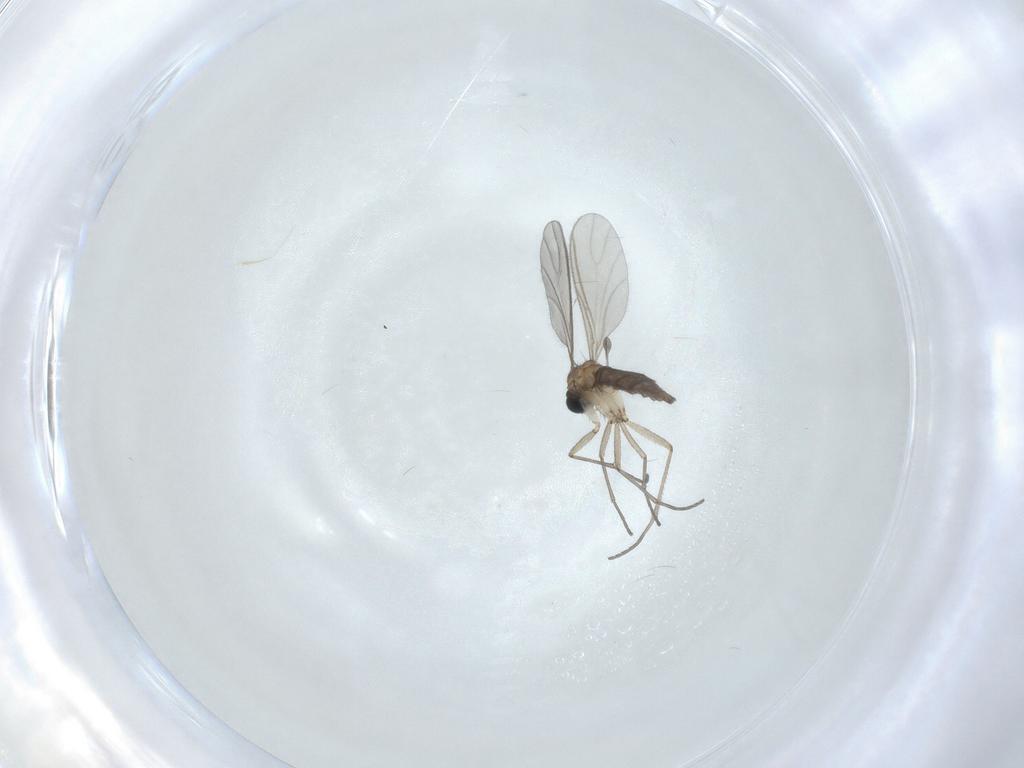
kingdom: Animalia
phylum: Arthropoda
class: Insecta
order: Diptera
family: Sciaridae
